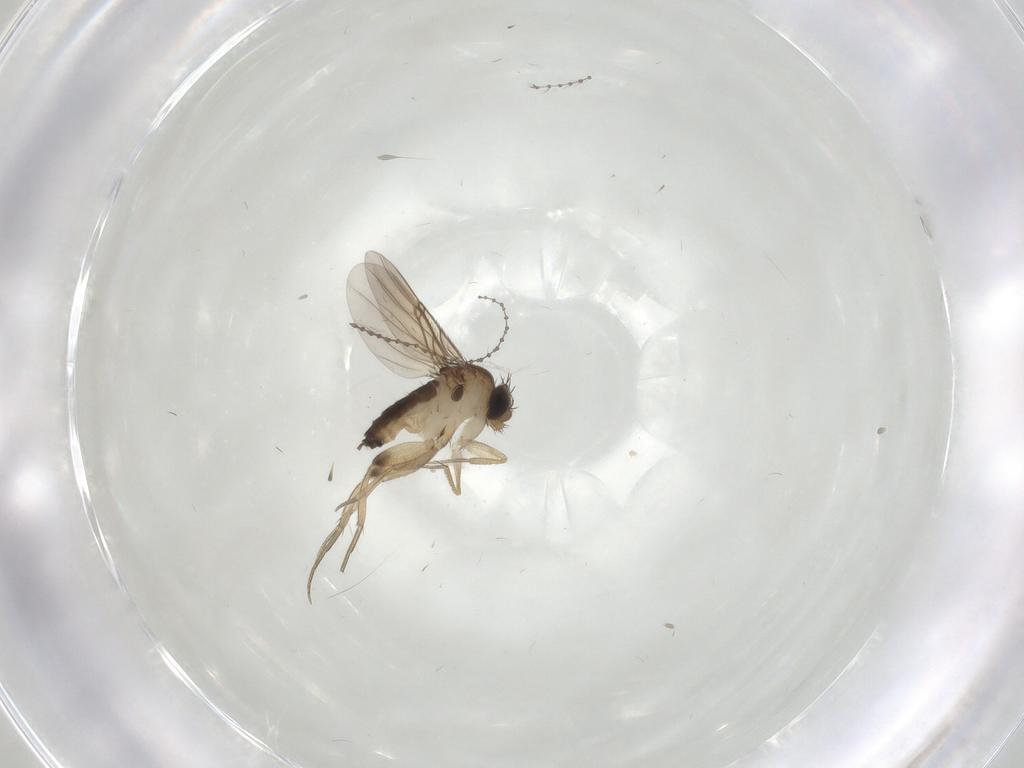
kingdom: Animalia
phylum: Arthropoda
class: Insecta
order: Diptera
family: Phoridae
